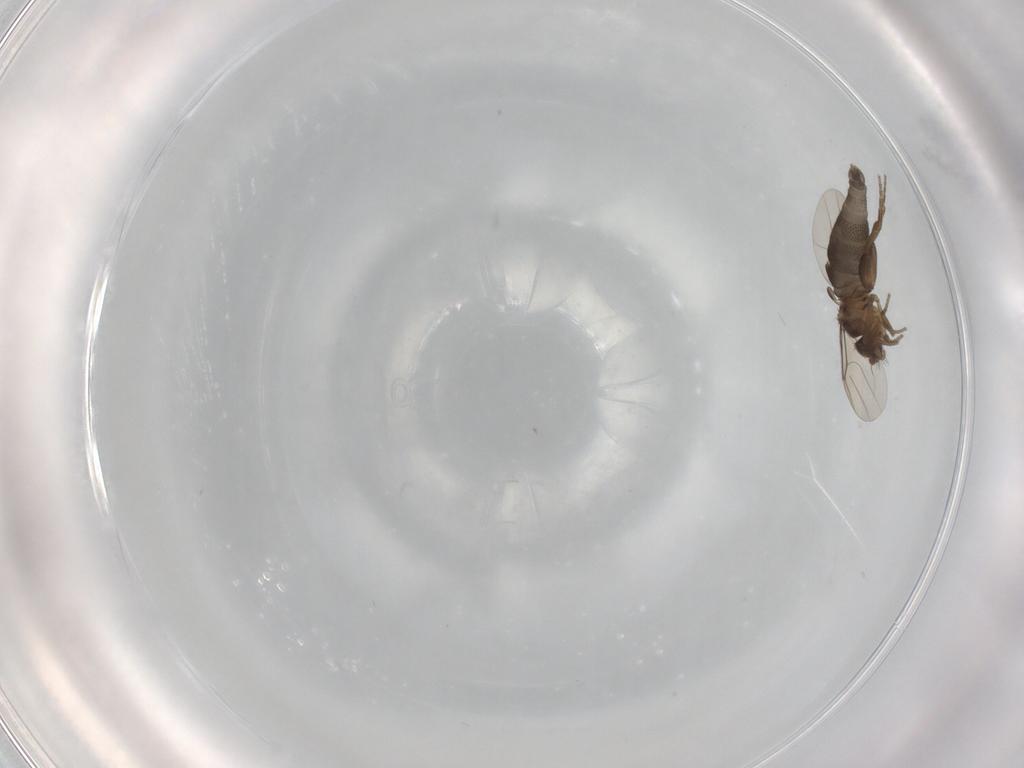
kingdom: Animalia
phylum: Arthropoda
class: Insecta
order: Diptera
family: Phoridae
